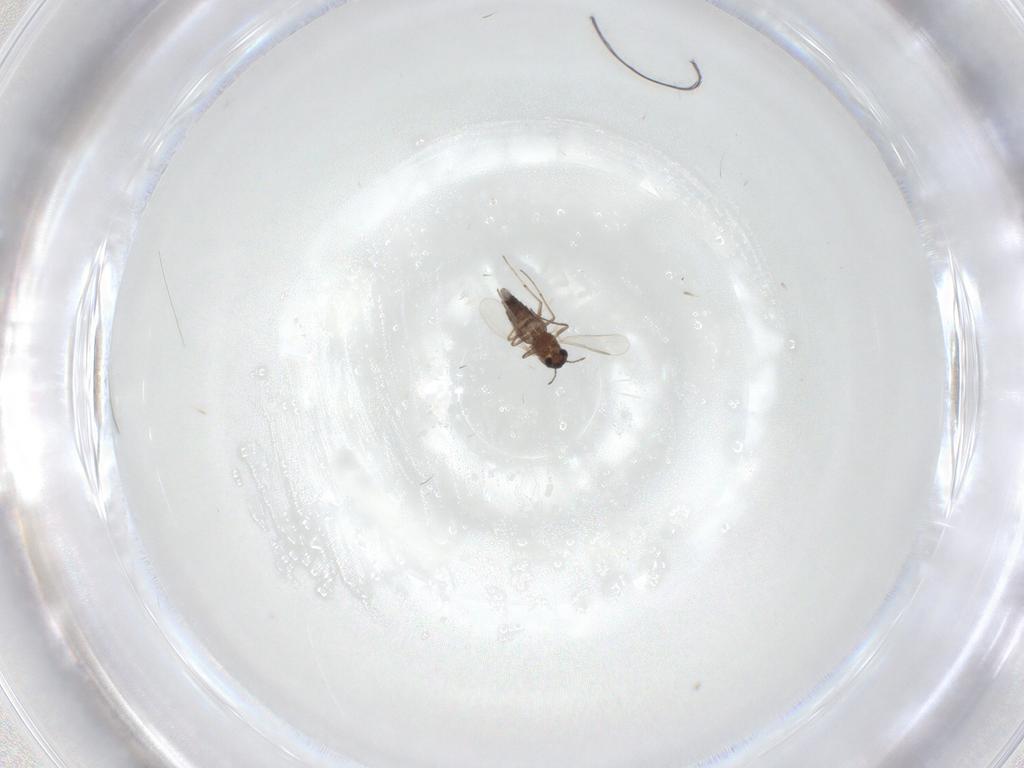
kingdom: Animalia
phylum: Arthropoda
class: Insecta
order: Diptera
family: Chironomidae
